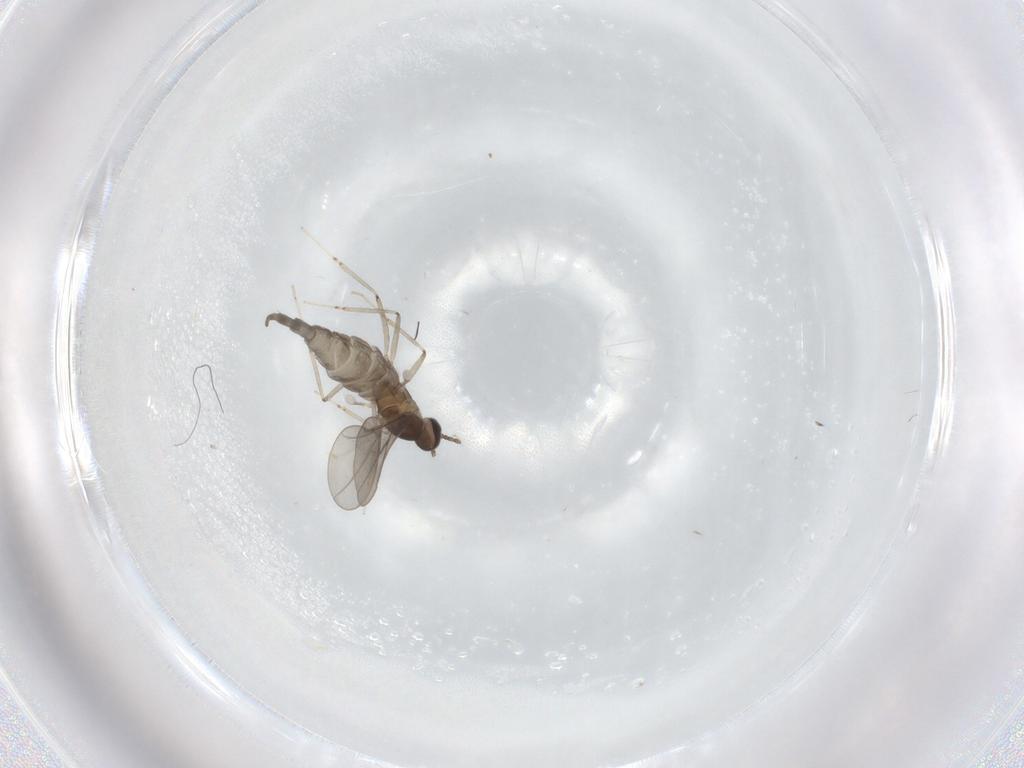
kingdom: Animalia
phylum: Arthropoda
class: Insecta
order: Diptera
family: Cecidomyiidae
